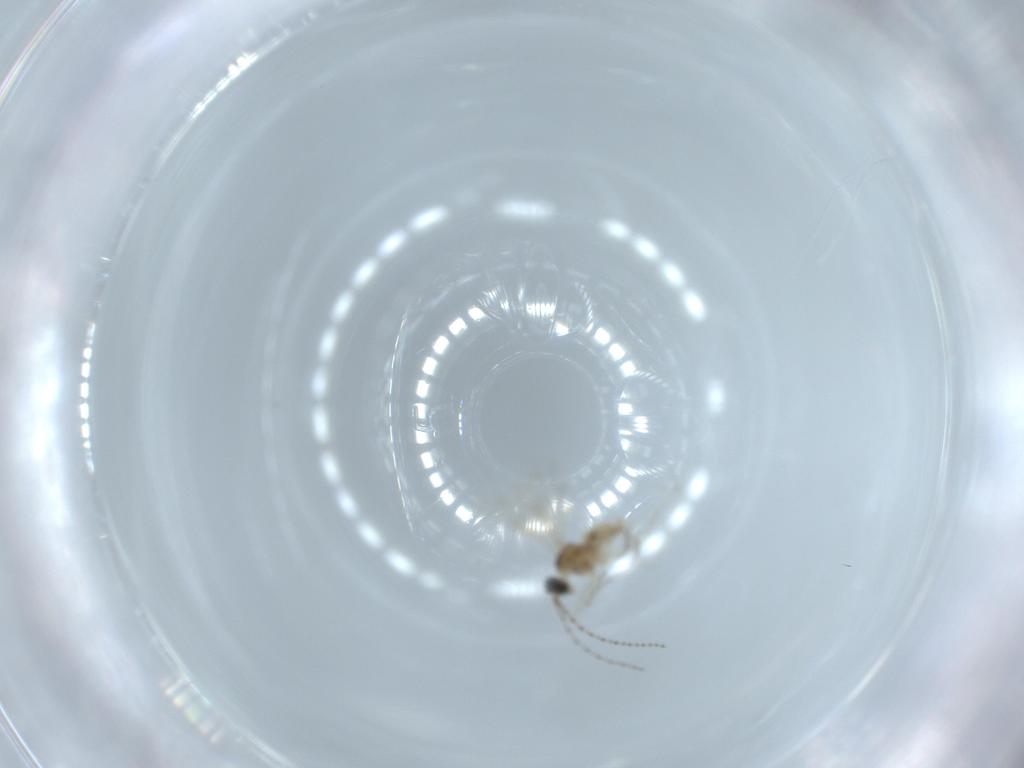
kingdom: Animalia
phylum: Arthropoda
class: Insecta
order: Diptera
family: Cecidomyiidae
